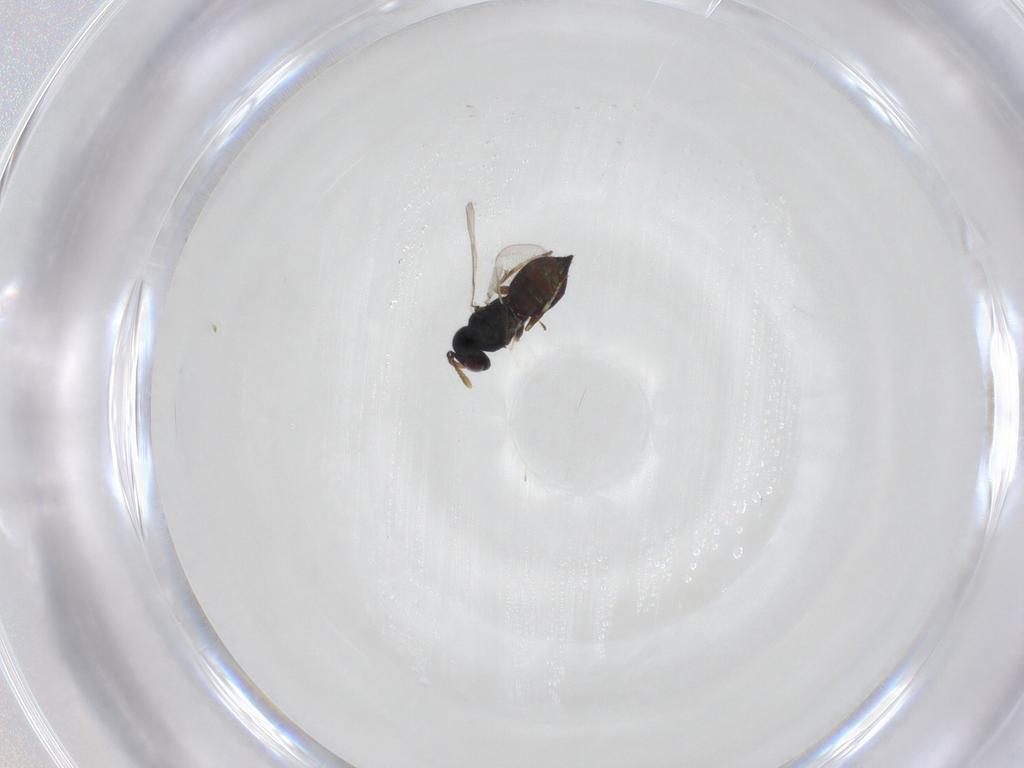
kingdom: Animalia
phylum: Arthropoda
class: Insecta
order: Hymenoptera
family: Pteromalidae
